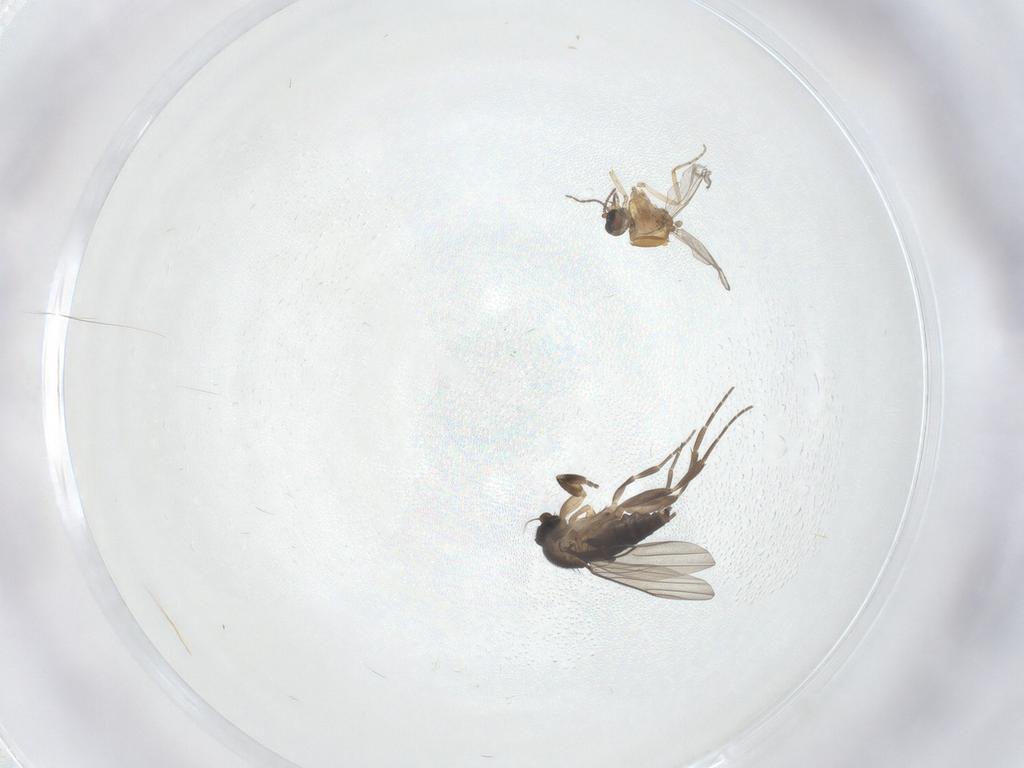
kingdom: Animalia
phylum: Arthropoda
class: Insecta
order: Diptera
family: Phoridae
